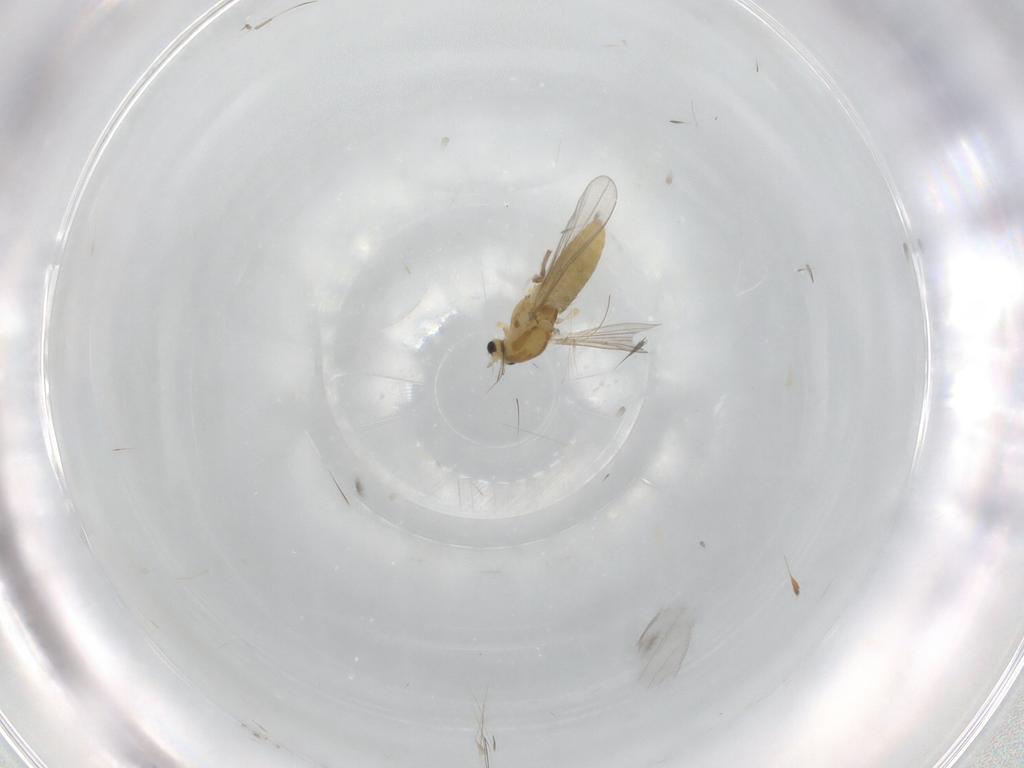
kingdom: Animalia
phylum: Arthropoda
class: Insecta
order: Diptera
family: Chironomidae
